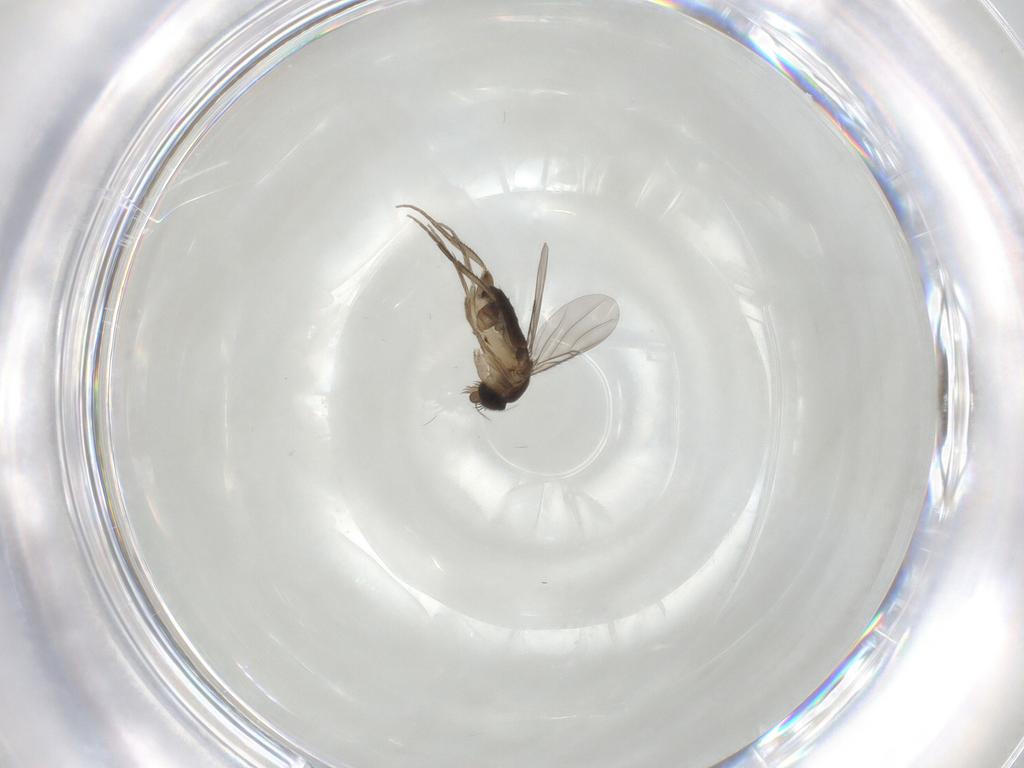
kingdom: Animalia
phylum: Arthropoda
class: Insecta
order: Diptera
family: Phoridae
